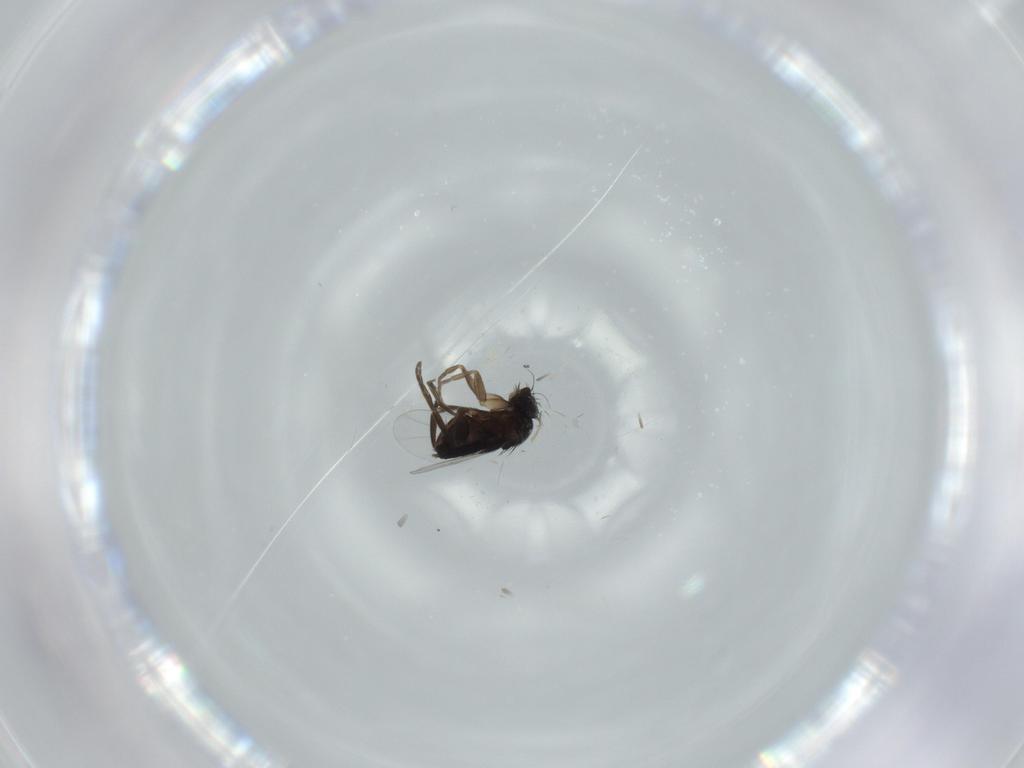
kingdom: Animalia
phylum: Arthropoda
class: Insecta
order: Diptera
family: Phoridae
